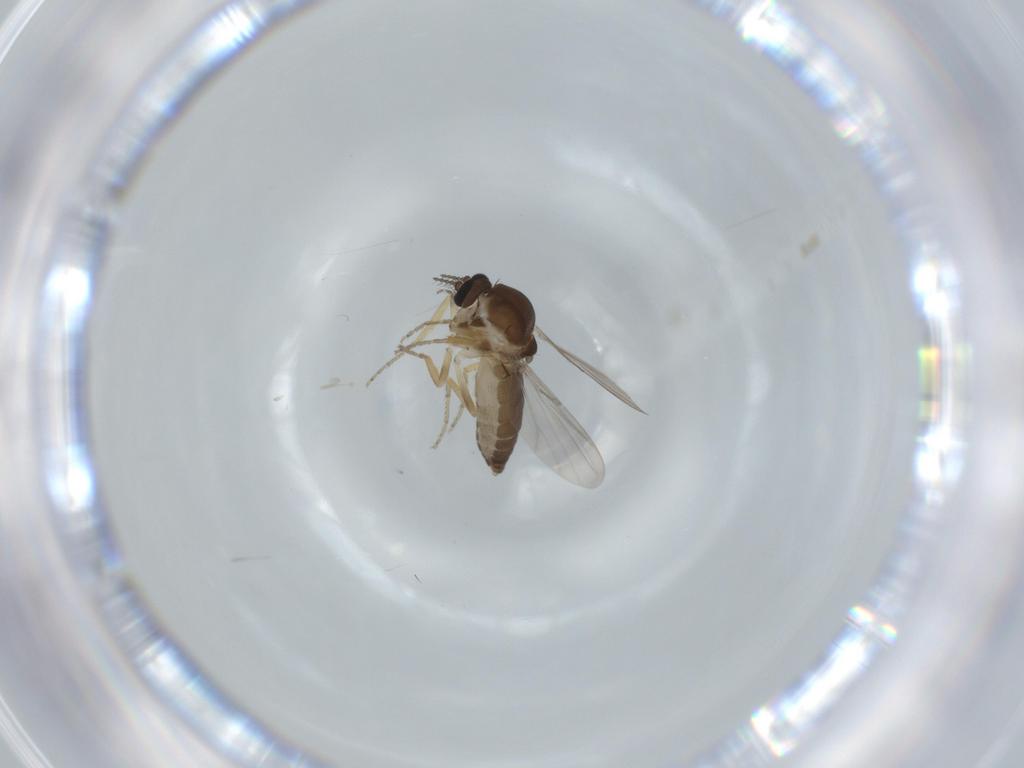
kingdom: Animalia
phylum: Arthropoda
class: Insecta
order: Diptera
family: Ceratopogonidae
